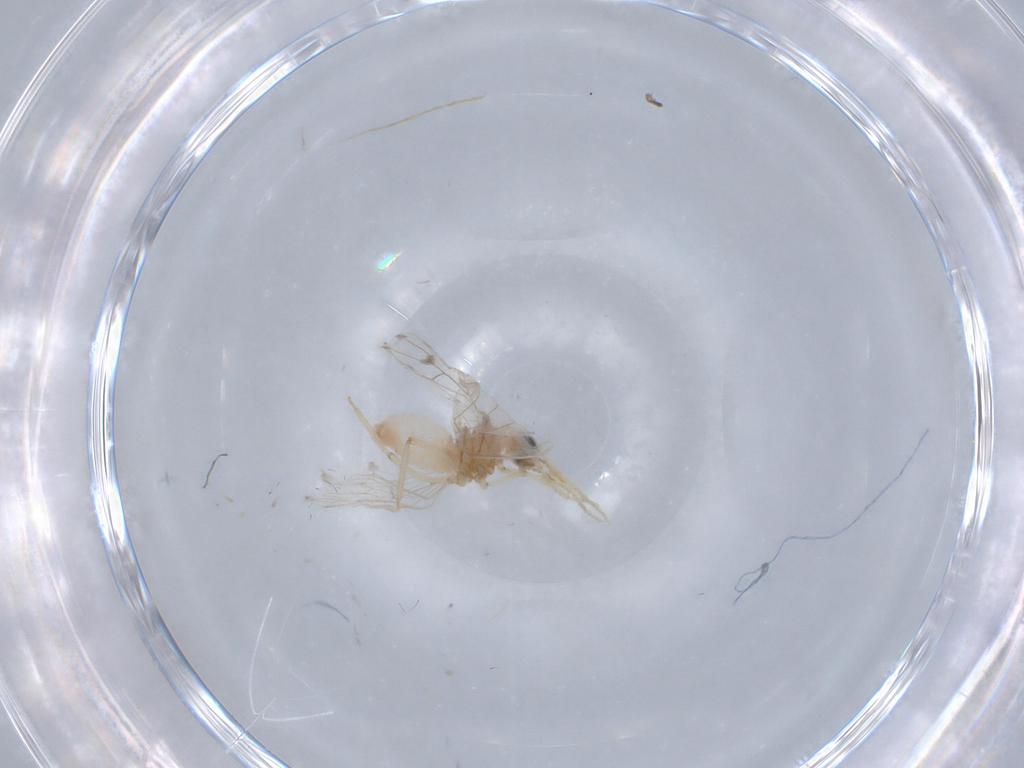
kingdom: Animalia
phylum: Arthropoda
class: Insecta
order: Neuroptera
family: Coniopterygidae
